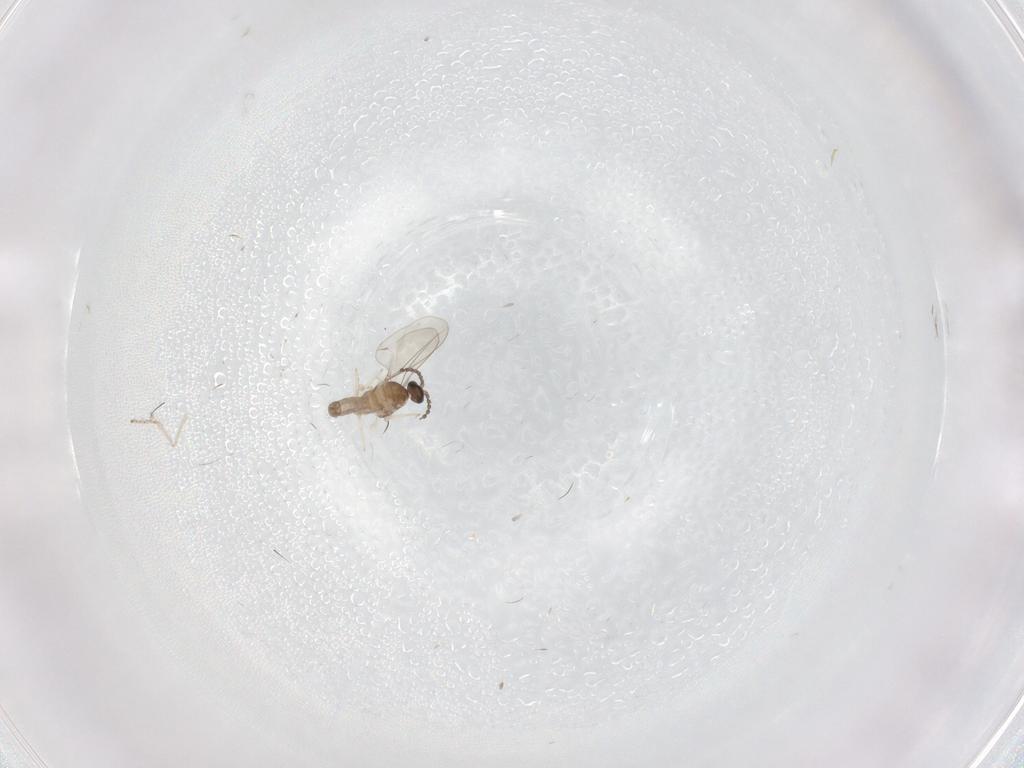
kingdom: Animalia
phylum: Arthropoda
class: Insecta
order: Diptera
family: Cecidomyiidae
